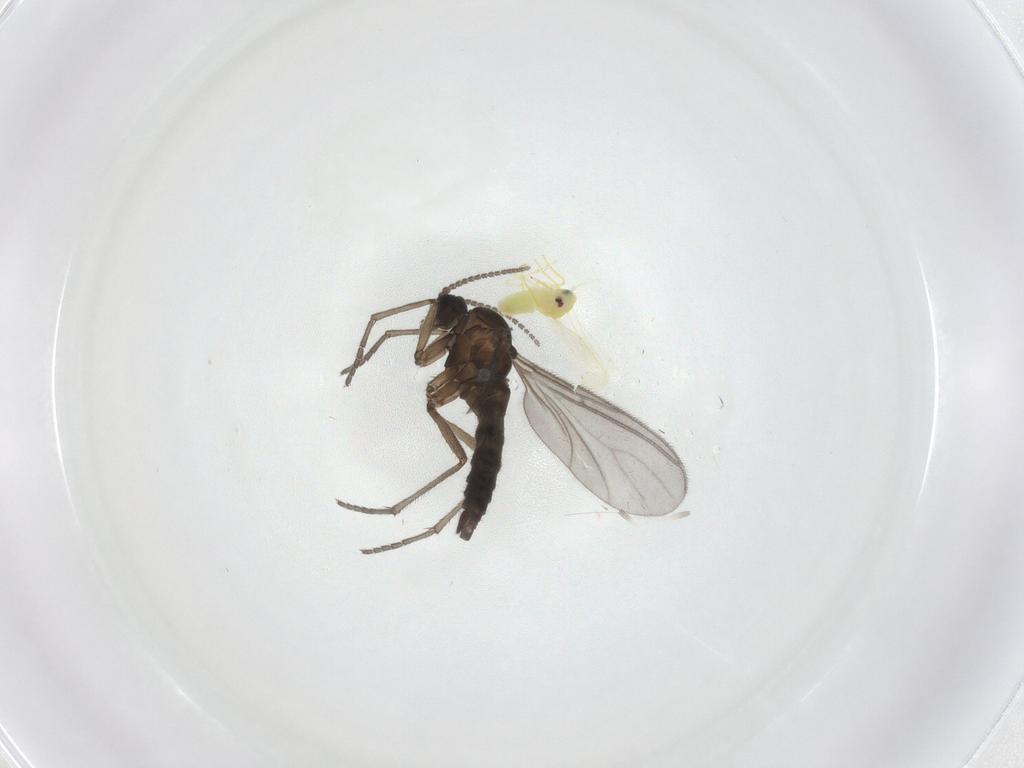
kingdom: Animalia
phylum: Arthropoda
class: Insecta
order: Diptera
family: Sciaridae
